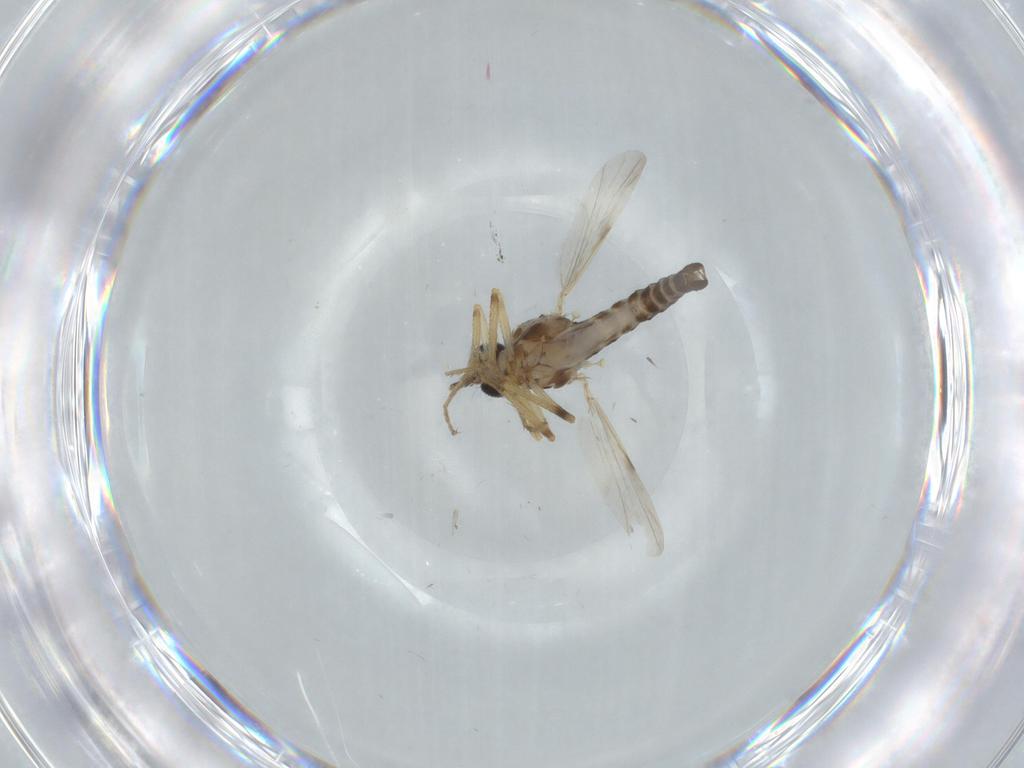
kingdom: Animalia
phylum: Arthropoda
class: Insecta
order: Diptera
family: Ceratopogonidae
